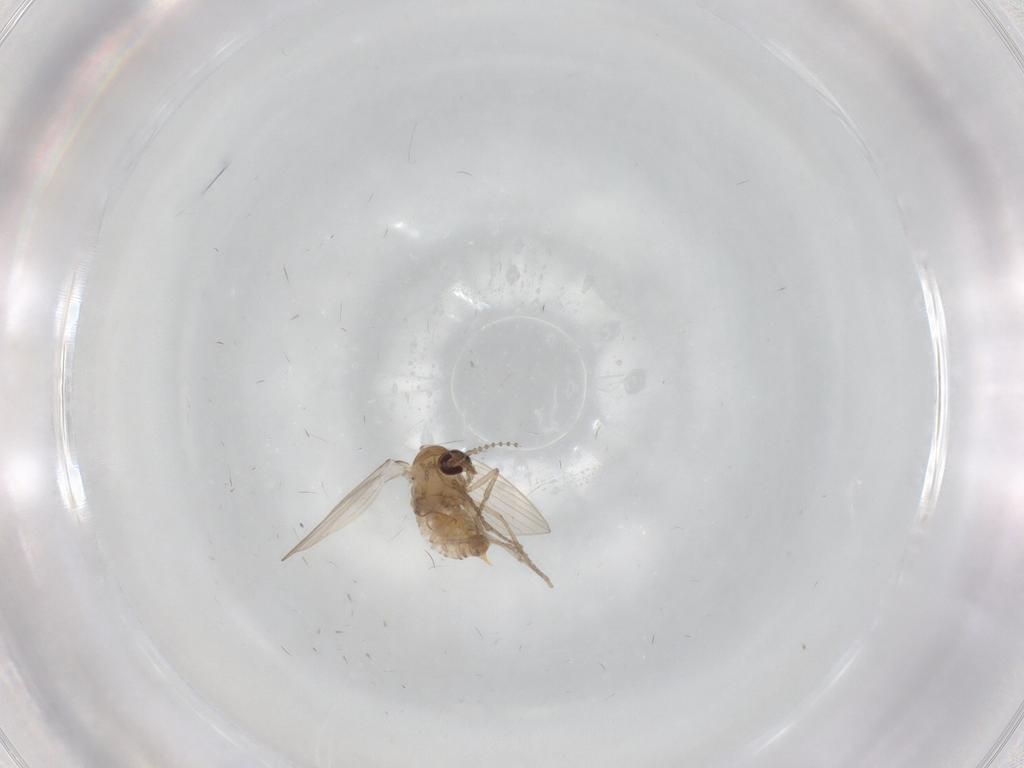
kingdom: Animalia
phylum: Arthropoda
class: Insecta
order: Diptera
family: Psychodidae
